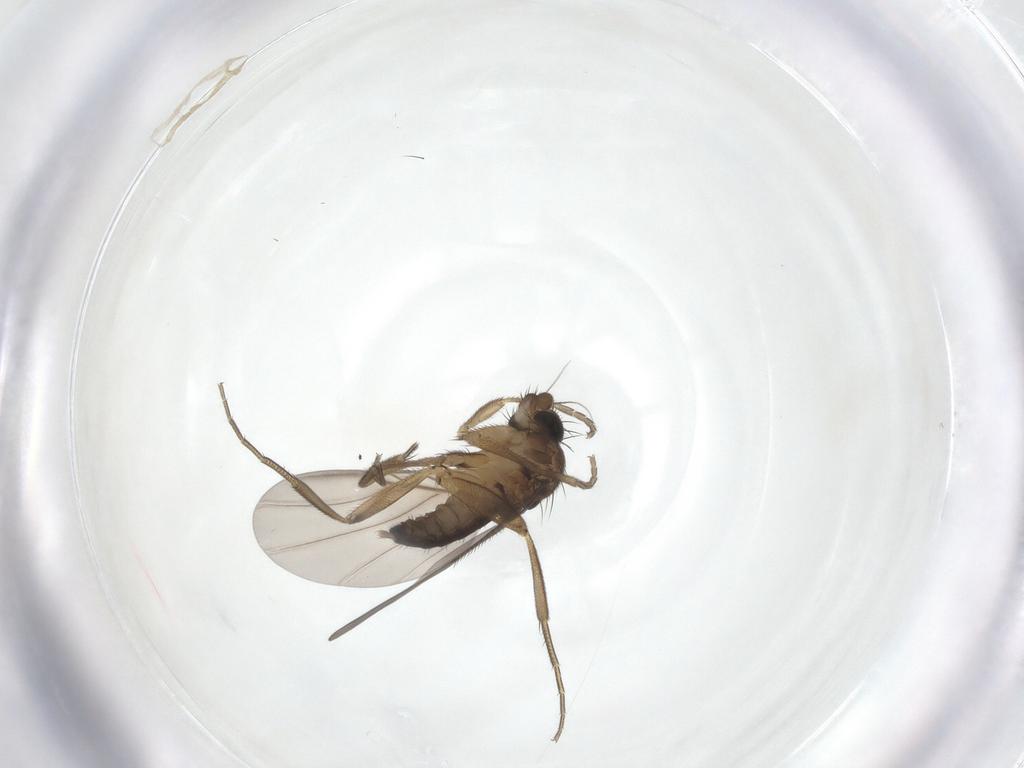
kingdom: Animalia
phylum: Arthropoda
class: Insecta
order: Diptera
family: Phoridae
